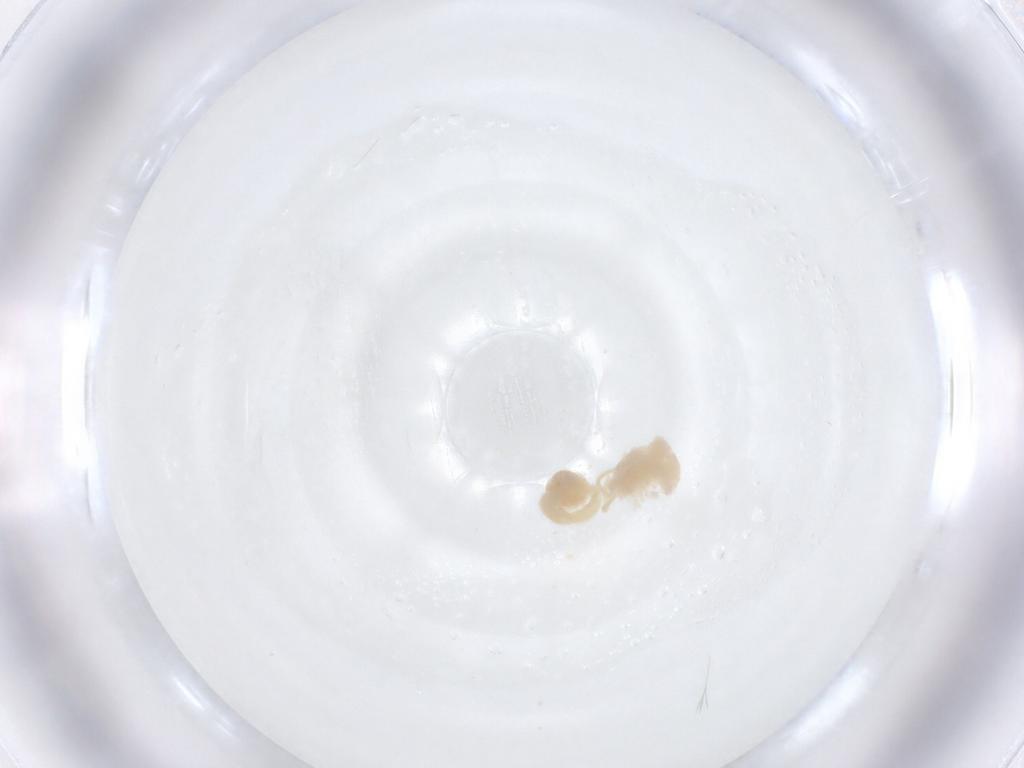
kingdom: Animalia
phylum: Arthropoda
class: Arachnida
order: Araneae
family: Pholcidae
